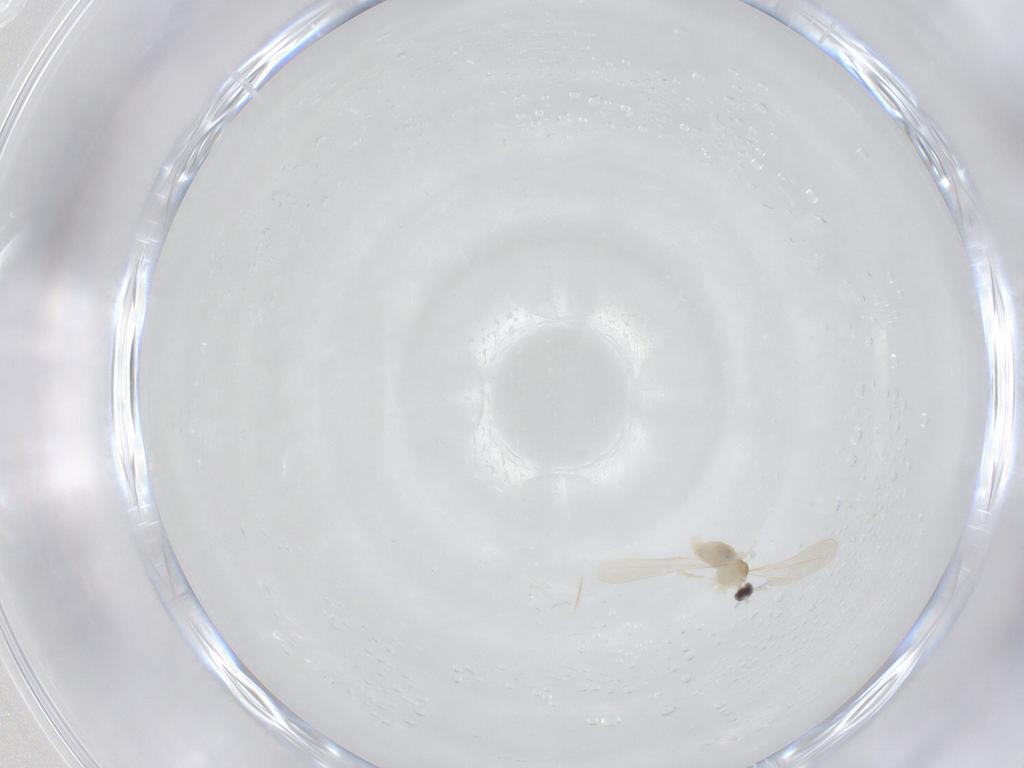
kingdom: Animalia
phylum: Arthropoda
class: Insecta
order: Diptera
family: Cecidomyiidae
